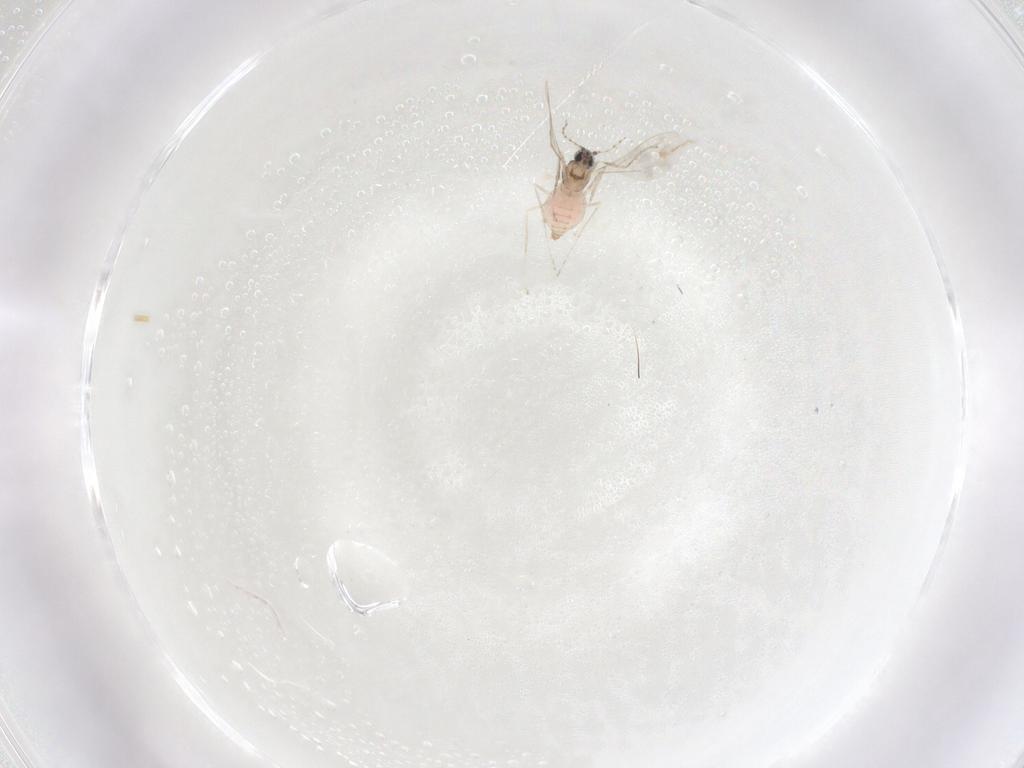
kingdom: Animalia
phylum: Arthropoda
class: Insecta
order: Diptera
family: Cecidomyiidae
